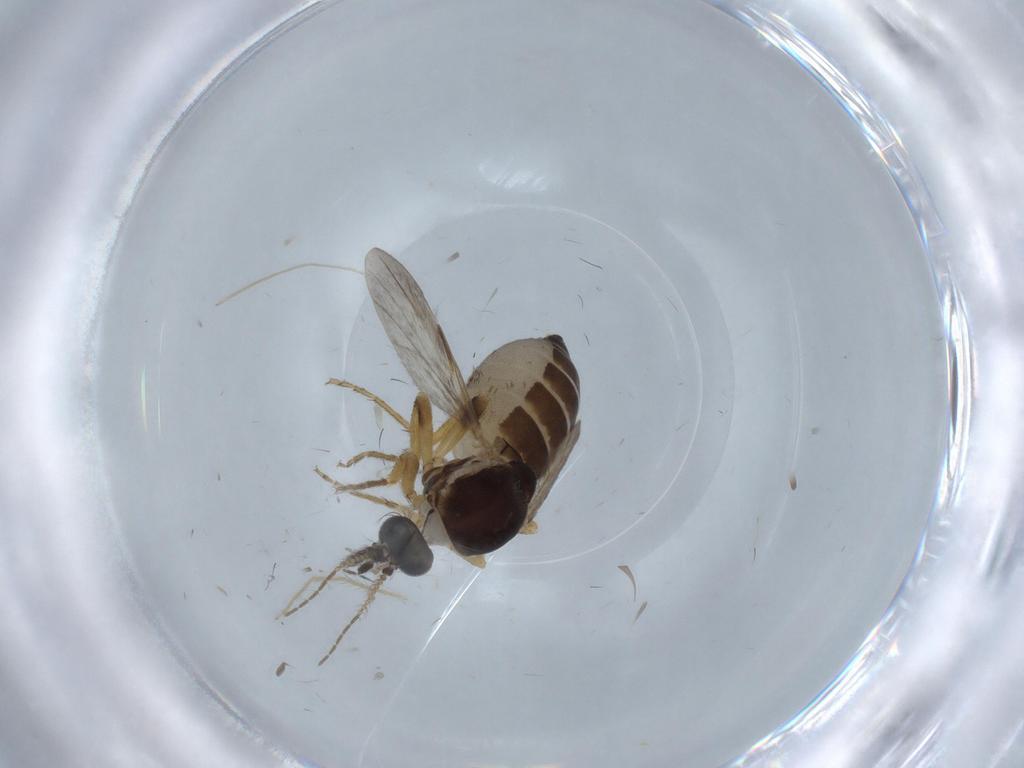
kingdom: Animalia
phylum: Arthropoda
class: Insecta
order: Diptera
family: Ceratopogonidae
